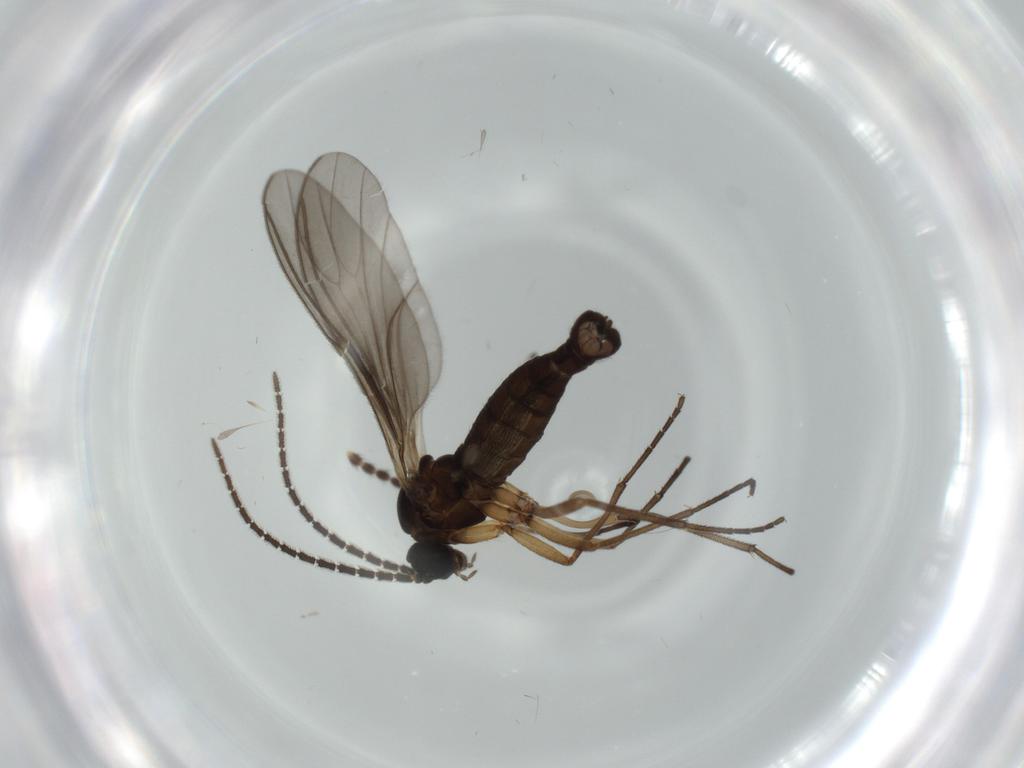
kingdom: Animalia
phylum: Arthropoda
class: Insecta
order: Diptera
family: Limoniidae
